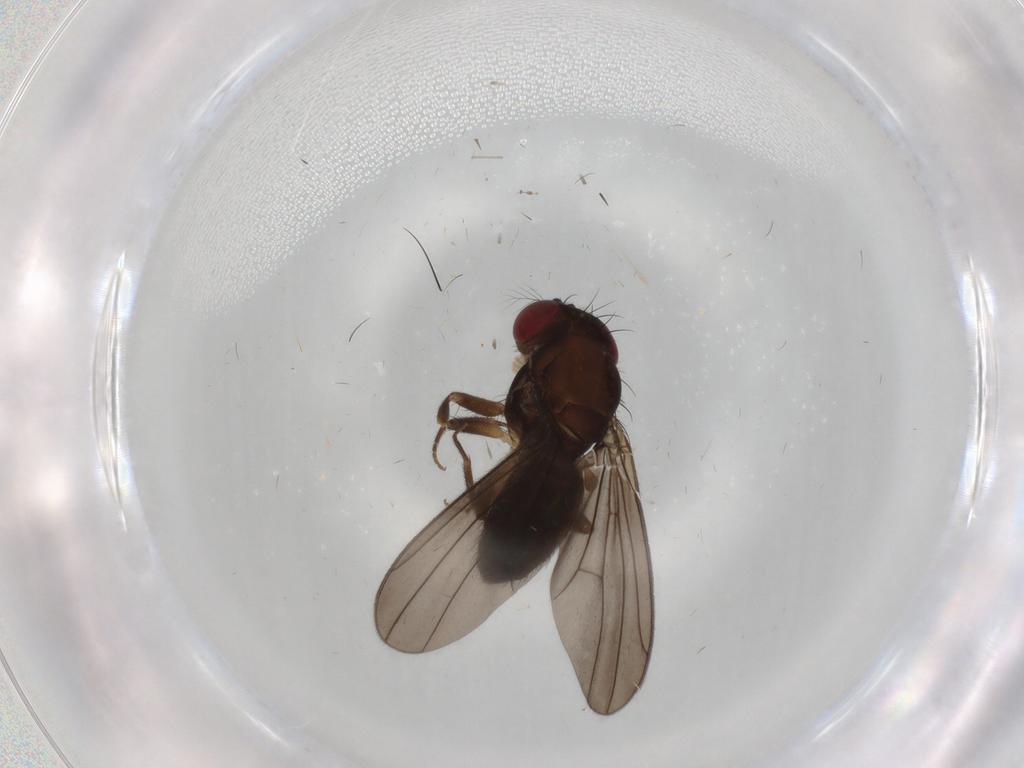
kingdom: Animalia
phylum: Arthropoda
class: Insecta
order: Diptera
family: Drosophilidae
